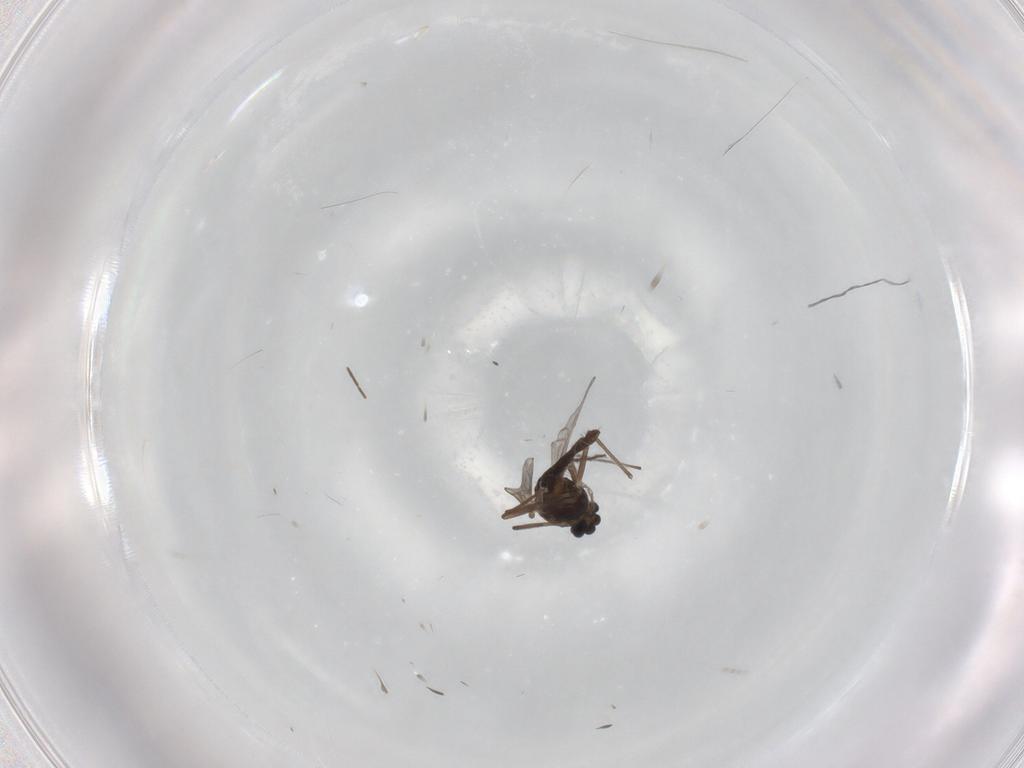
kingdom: Animalia
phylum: Arthropoda
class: Insecta
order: Diptera
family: Chironomidae
